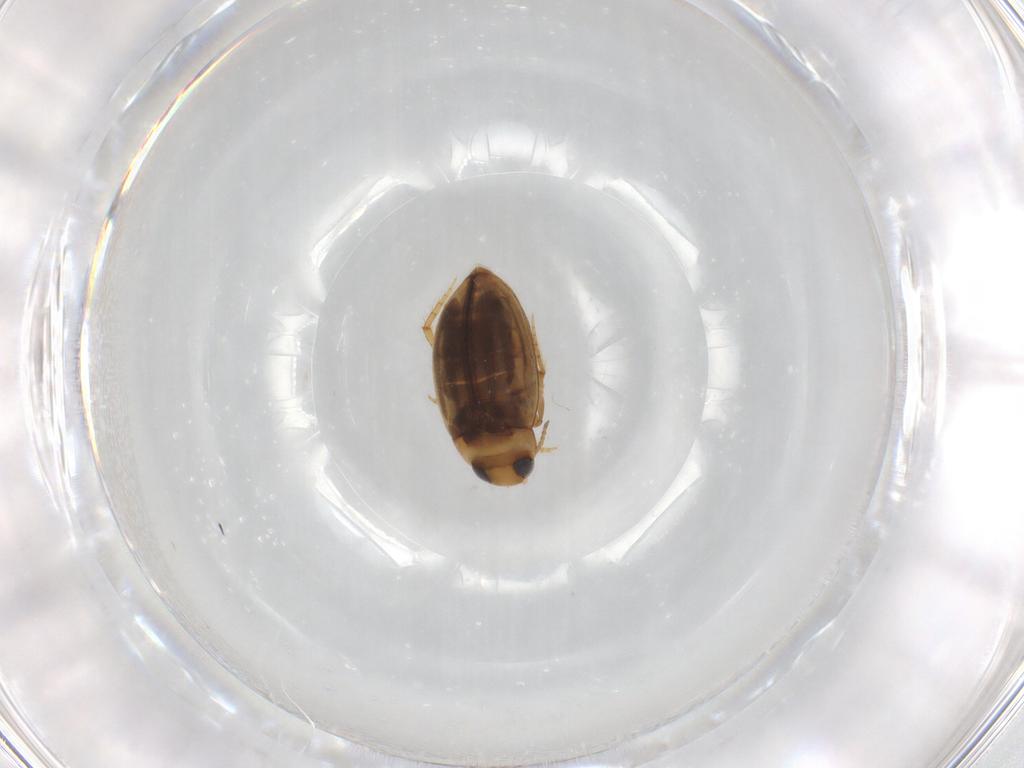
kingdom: Animalia
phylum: Arthropoda
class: Insecta
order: Coleoptera
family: Dytiscidae
